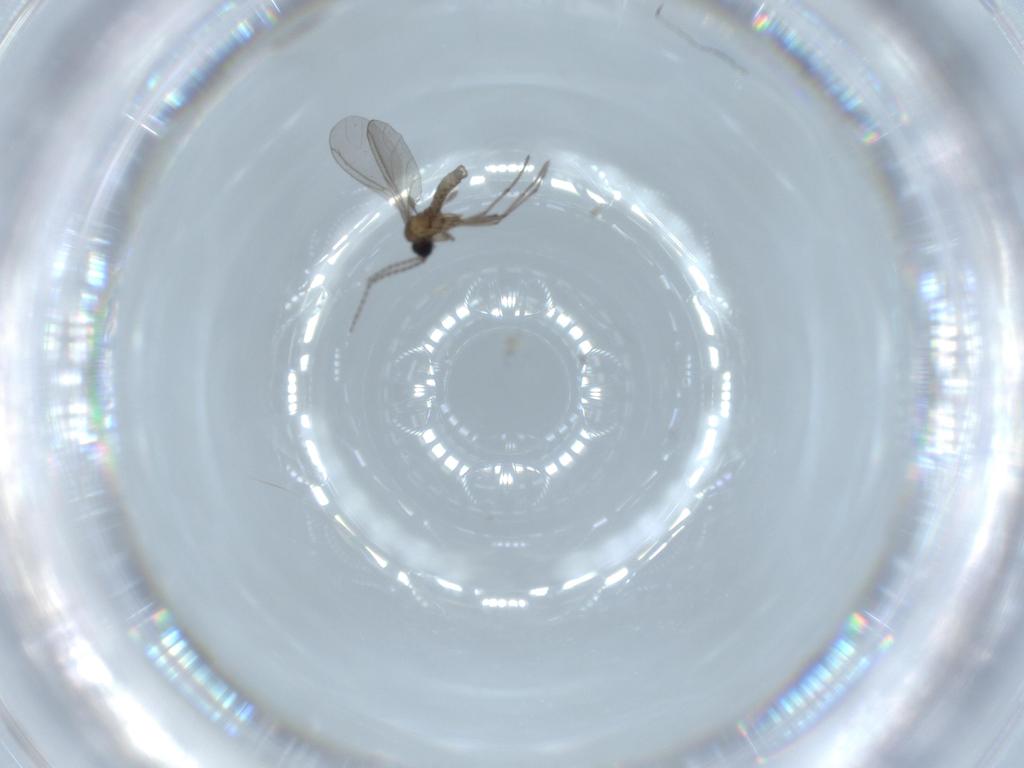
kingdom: Animalia
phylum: Arthropoda
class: Insecta
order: Diptera
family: Sciaridae
